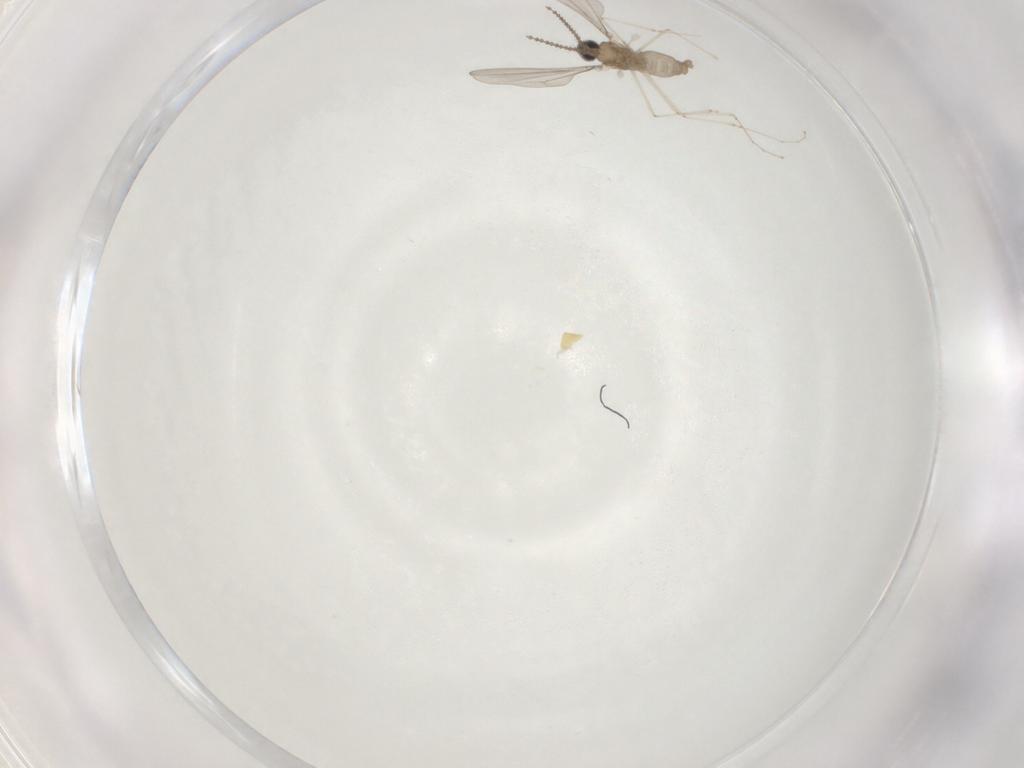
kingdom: Animalia
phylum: Arthropoda
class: Insecta
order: Diptera
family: Cecidomyiidae
